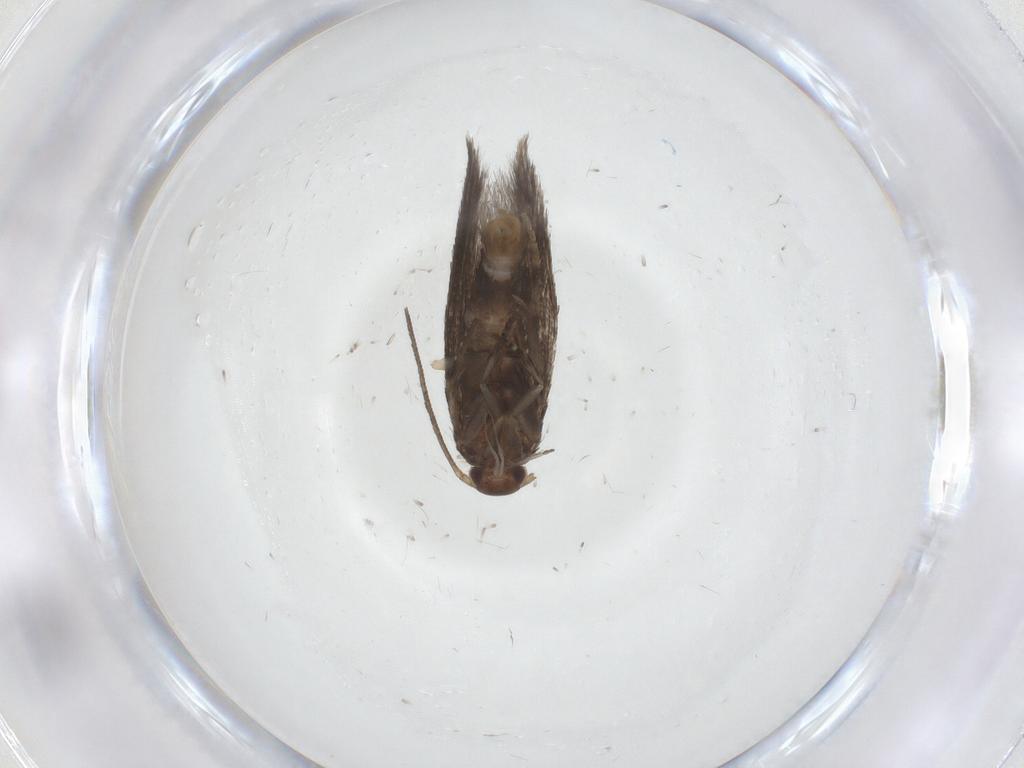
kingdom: Animalia
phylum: Arthropoda
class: Insecta
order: Lepidoptera
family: Elachistidae
